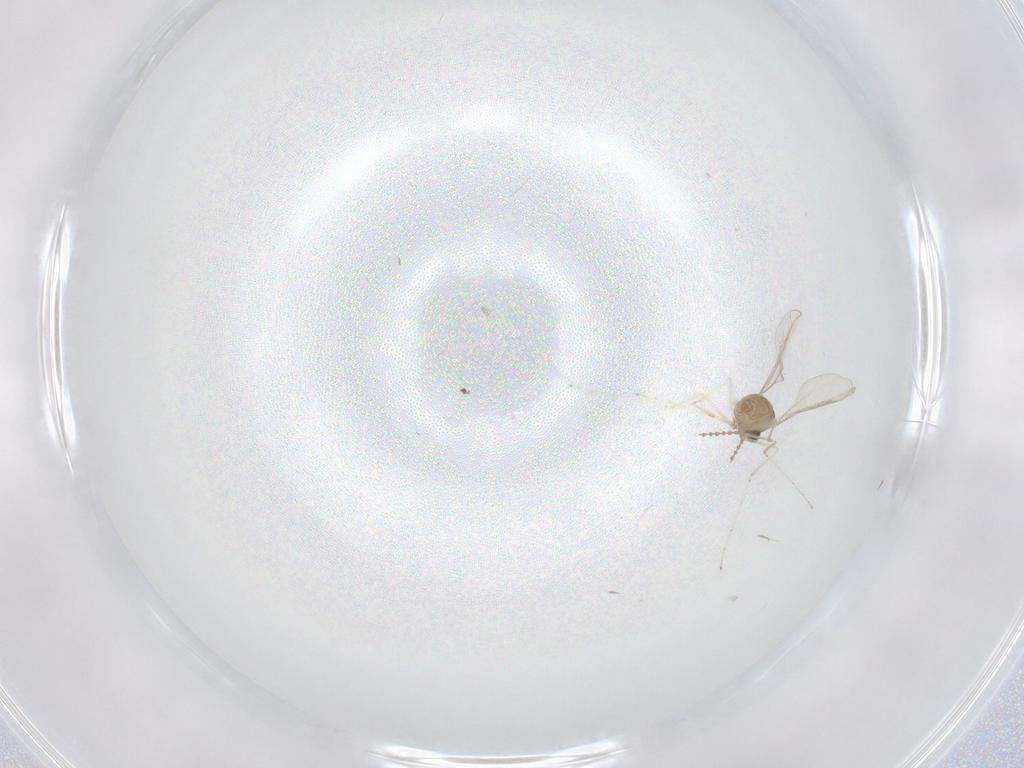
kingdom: Animalia
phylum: Arthropoda
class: Insecta
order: Diptera
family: Cecidomyiidae
